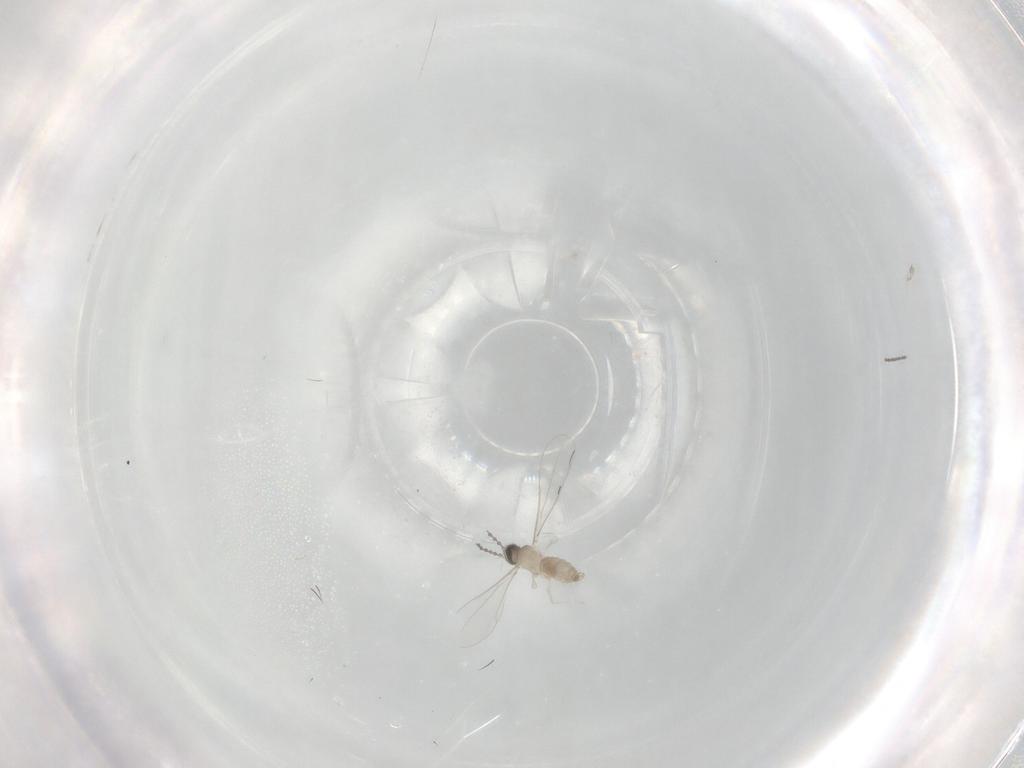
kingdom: Animalia
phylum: Arthropoda
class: Insecta
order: Diptera
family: Cecidomyiidae
